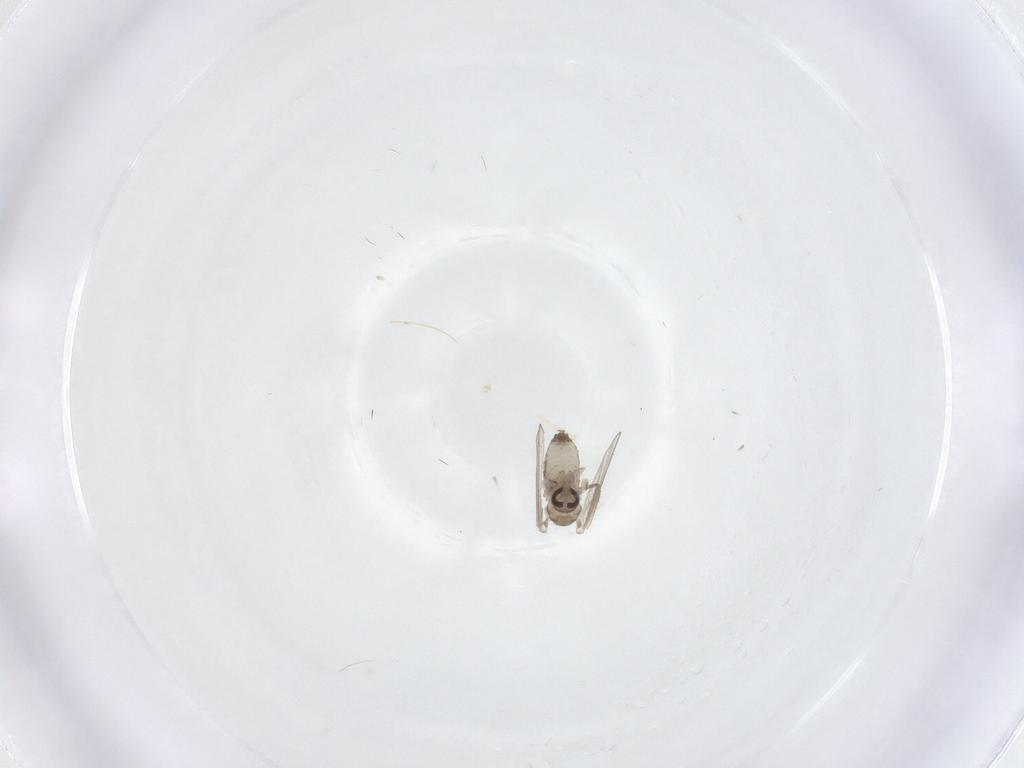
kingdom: Animalia
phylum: Arthropoda
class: Insecta
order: Diptera
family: Psychodidae
